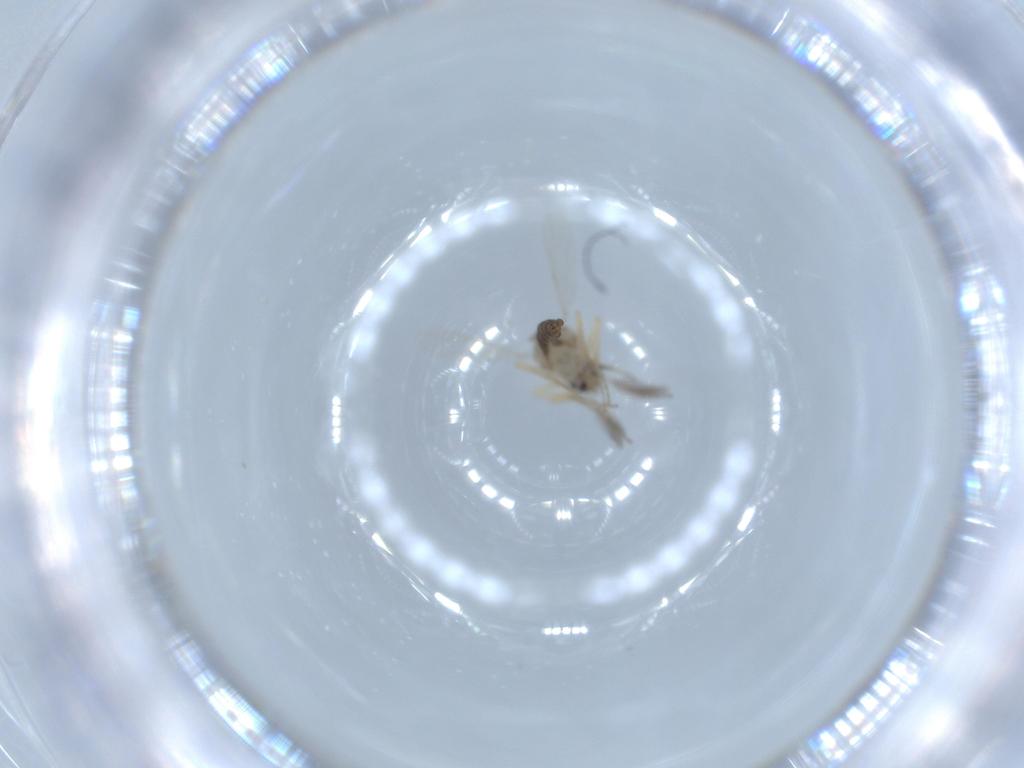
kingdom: Animalia
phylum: Arthropoda
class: Insecta
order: Diptera
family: Ceratopogonidae
